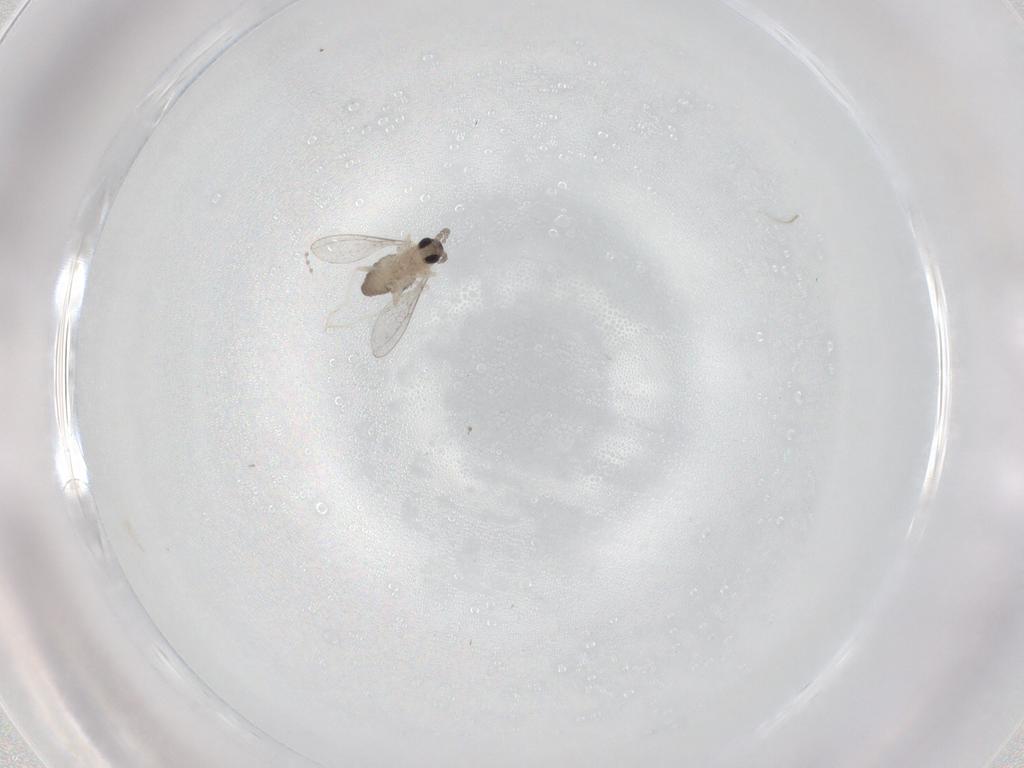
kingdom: Animalia
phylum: Arthropoda
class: Insecta
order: Diptera
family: Cecidomyiidae
